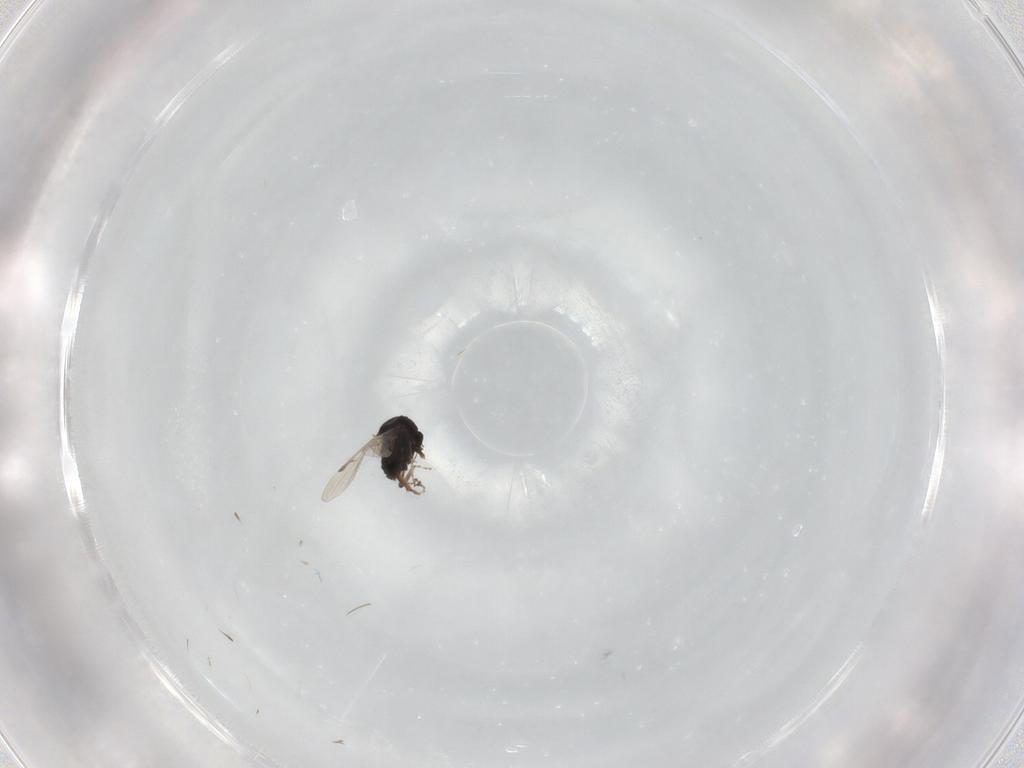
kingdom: Animalia
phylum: Arthropoda
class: Insecta
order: Diptera
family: Ceratopogonidae
